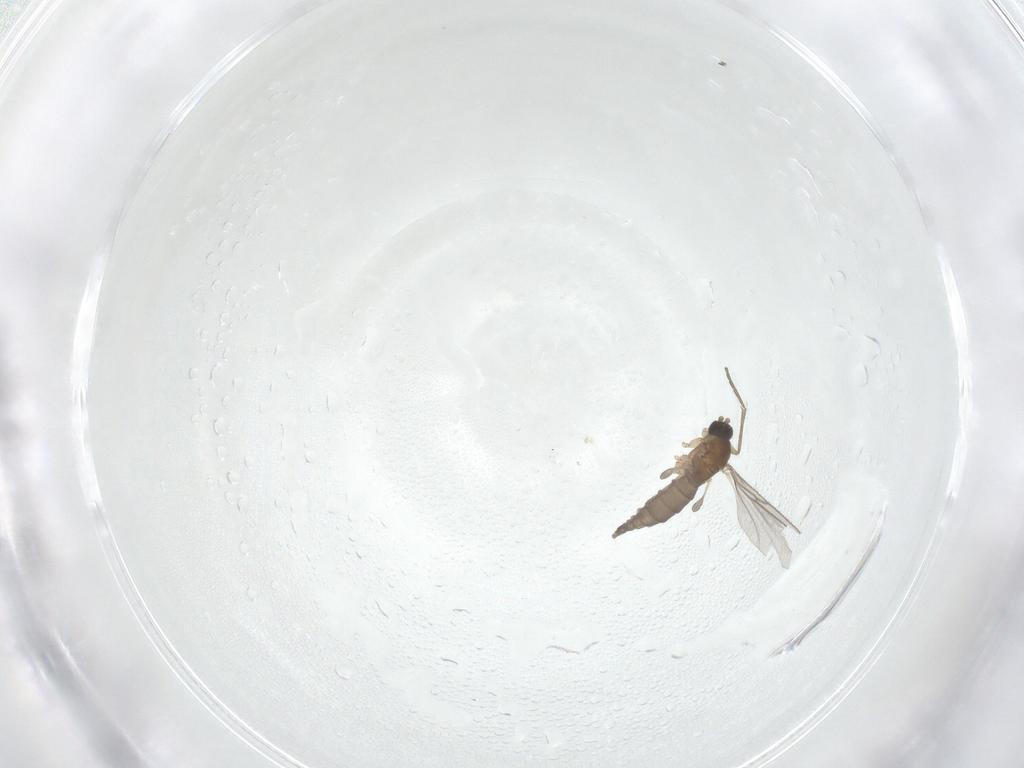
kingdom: Animalia
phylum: Arthropoda
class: Insecta
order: Diptera
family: Sciaridae
